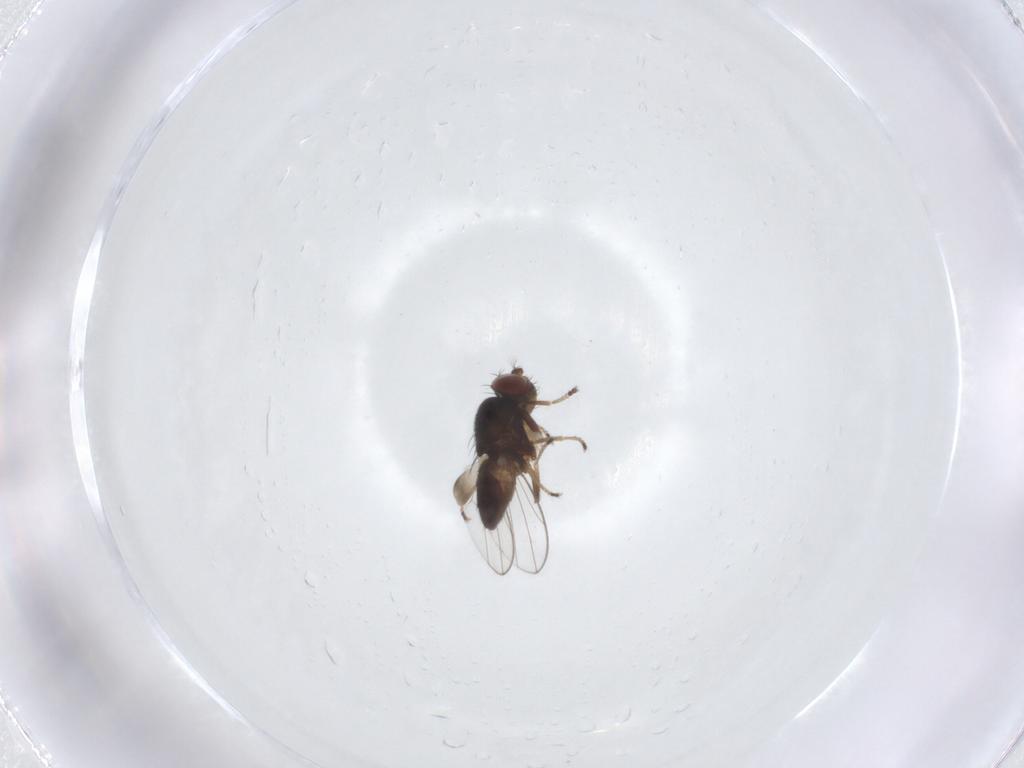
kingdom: Animalia
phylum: Arthropoda
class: Insecta
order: Diptera
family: Ephydridae
